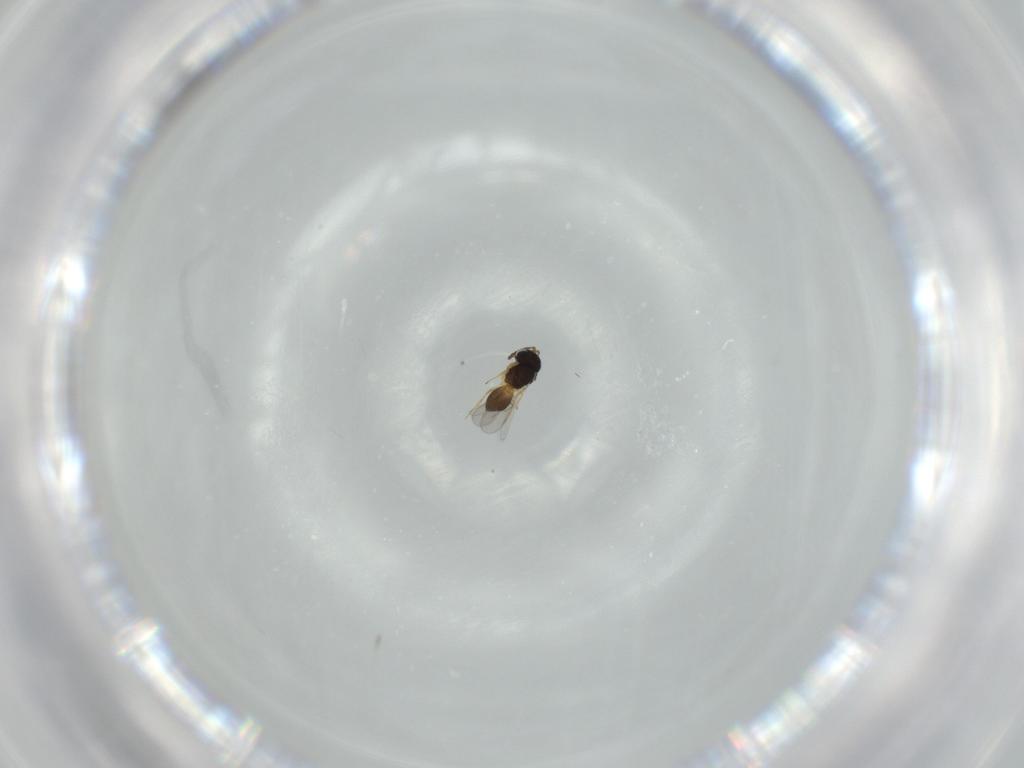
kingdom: Animalia
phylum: Arthropoda
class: Insecta
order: Lepidoptera
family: Tineidae
